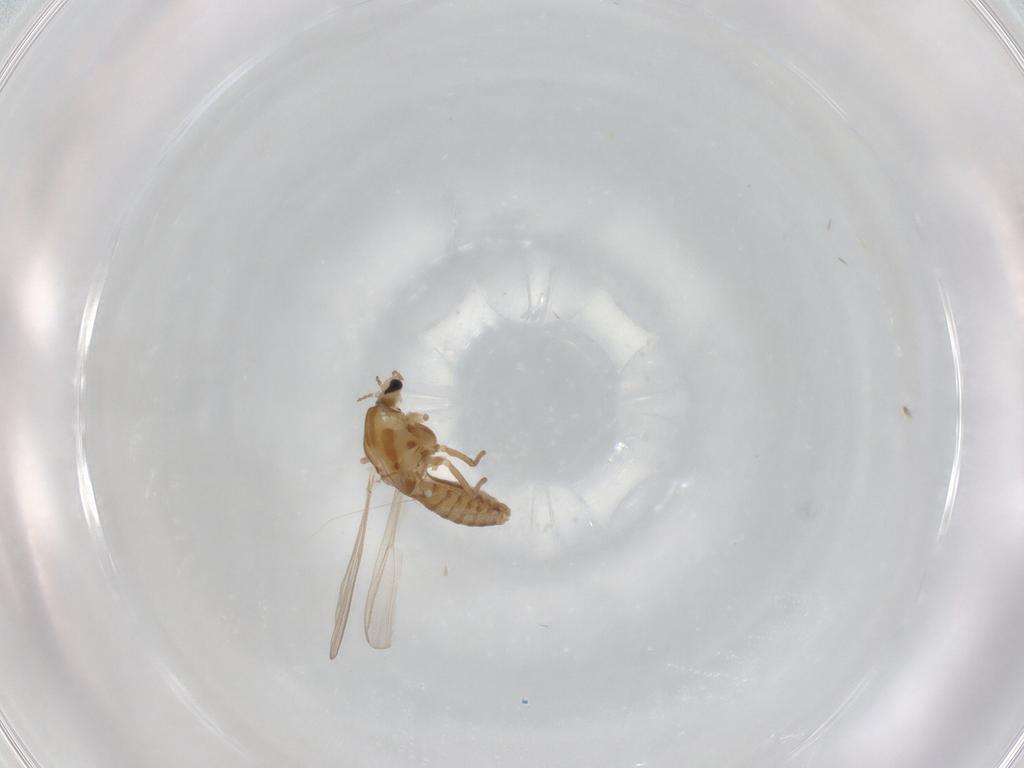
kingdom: Animalia
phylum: Arthropoda
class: Insecta
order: Diptera
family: Chironomidae
